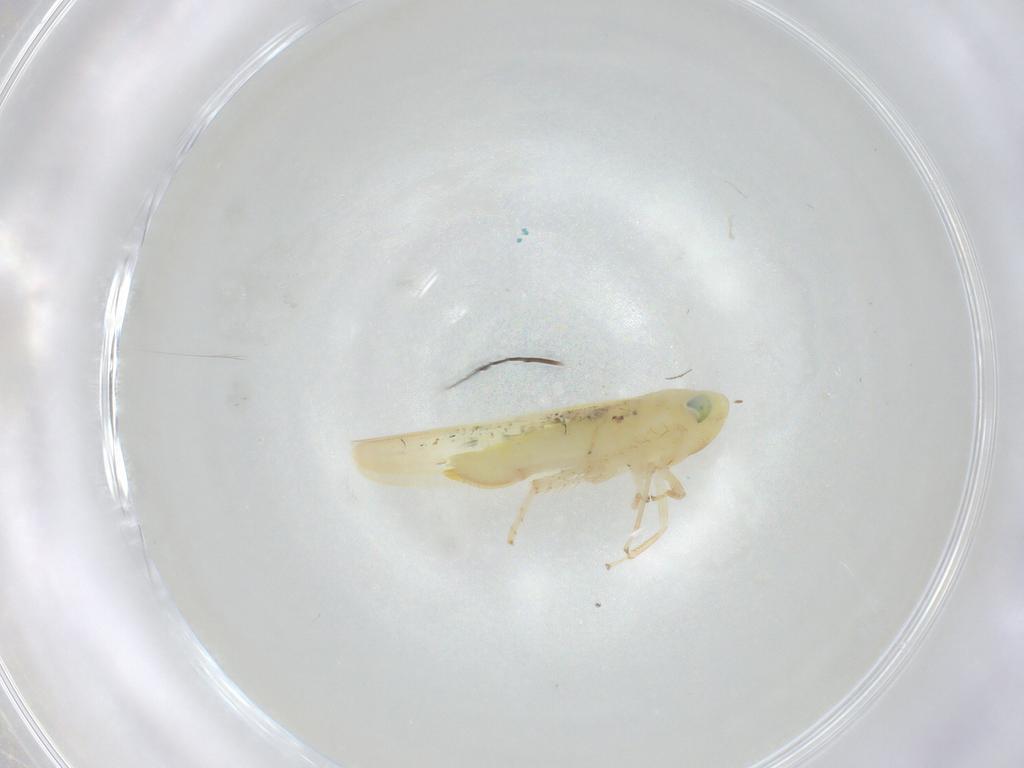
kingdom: Animalia
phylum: Arthropoda
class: Insecta
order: Hemiptera
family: Cicadellidae
